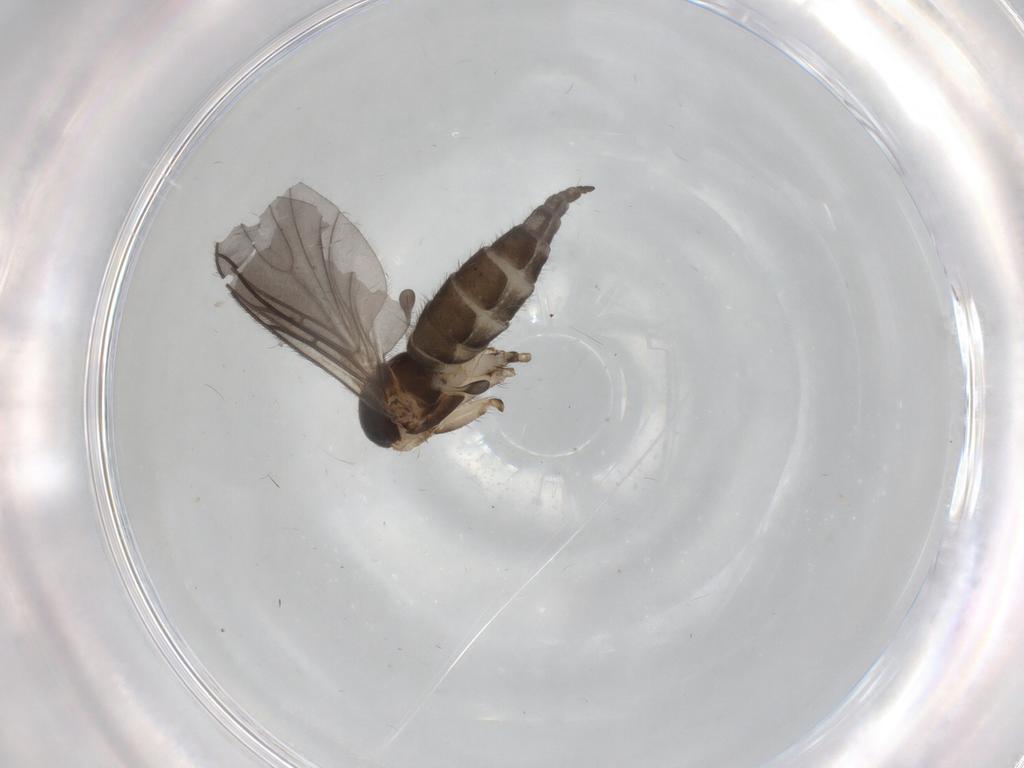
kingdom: Animalia
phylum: Arthropoda
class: Insecta
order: Diptera
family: Sciaridae
